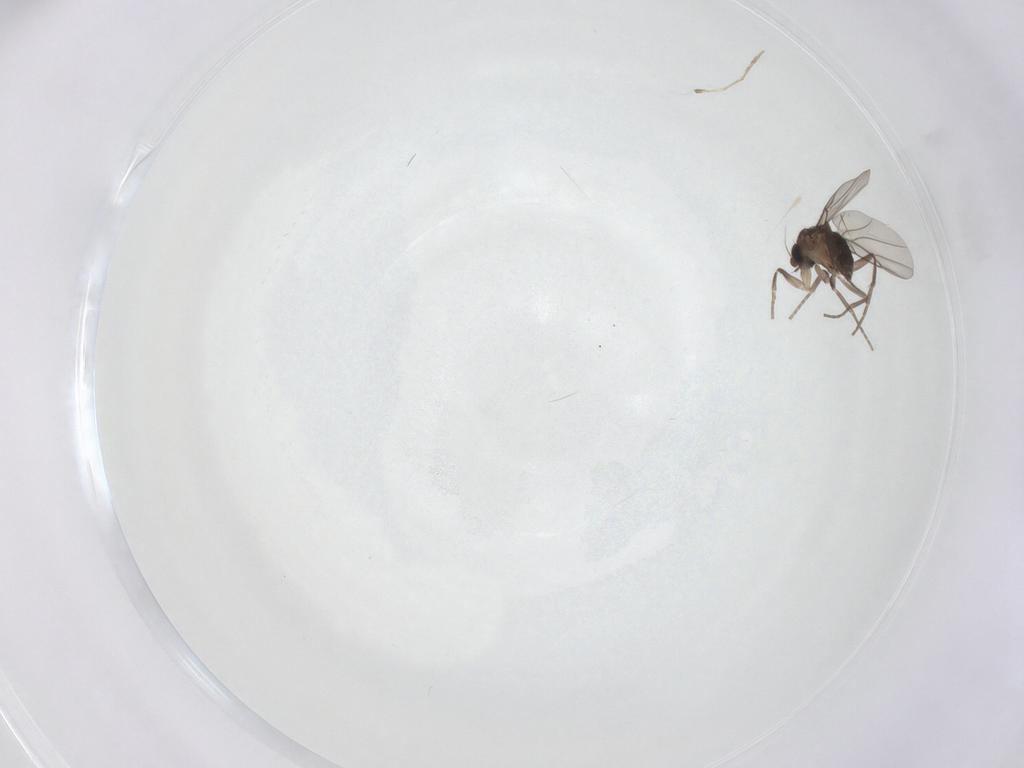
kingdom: Animalia
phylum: Arthropoda
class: Insecta
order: Diptera
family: Cecidomyiidae
